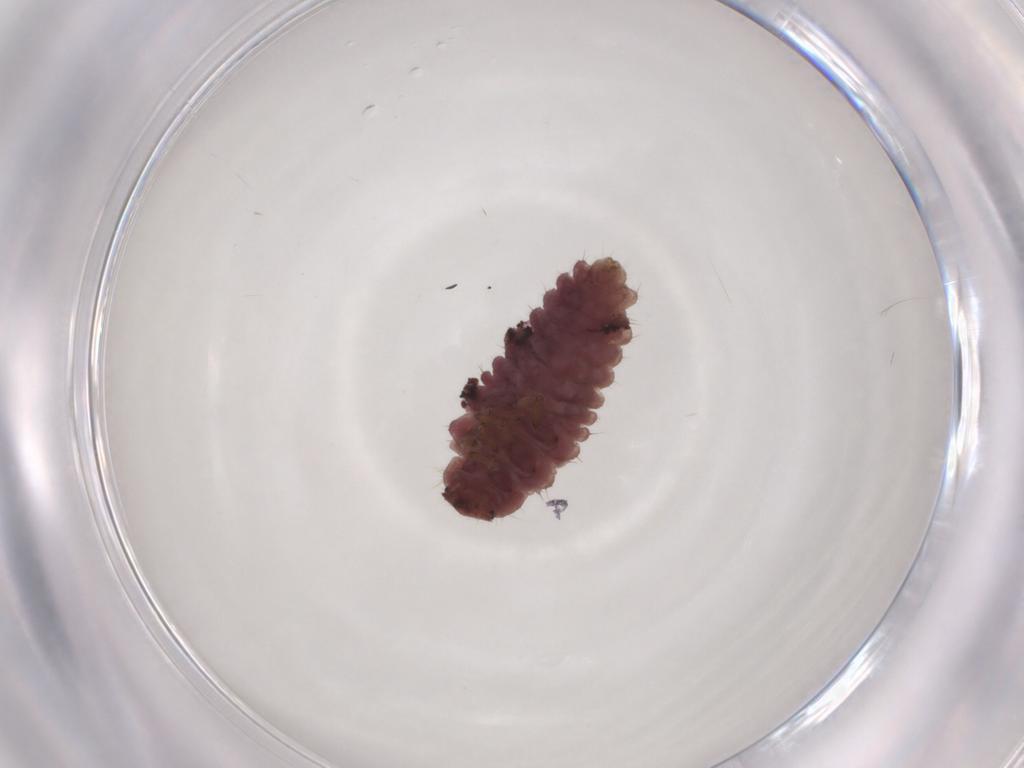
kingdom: Animalia
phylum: Arthropoda
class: Insecta
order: Coleoptera
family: Coccinellidae
